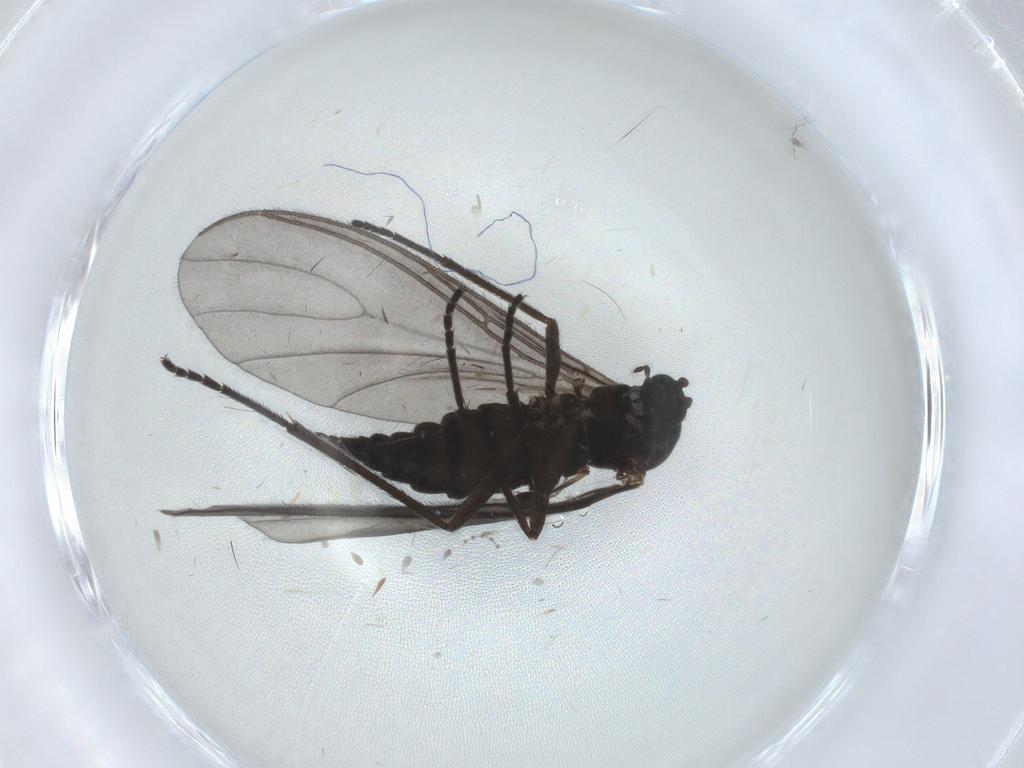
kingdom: Animalia
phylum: Arthropoda
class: Insecta
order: Diptera
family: Sciaridae
